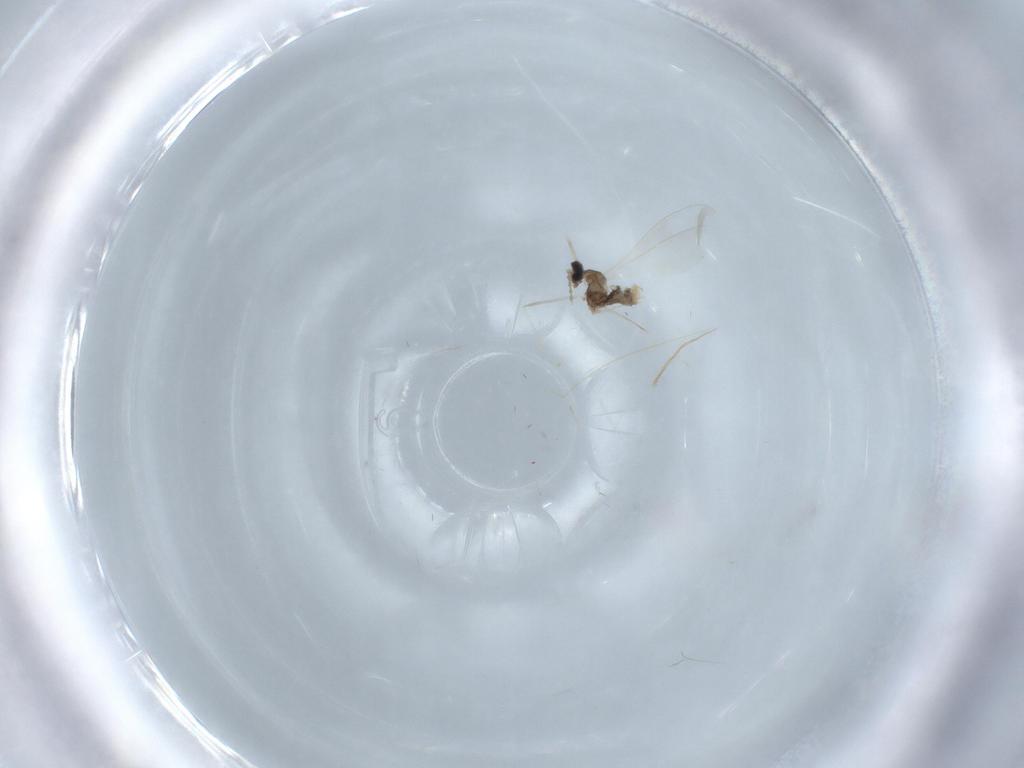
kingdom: Animalia
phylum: Arthropoda
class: Insecta
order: Diptera
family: Cecidomyiidae
